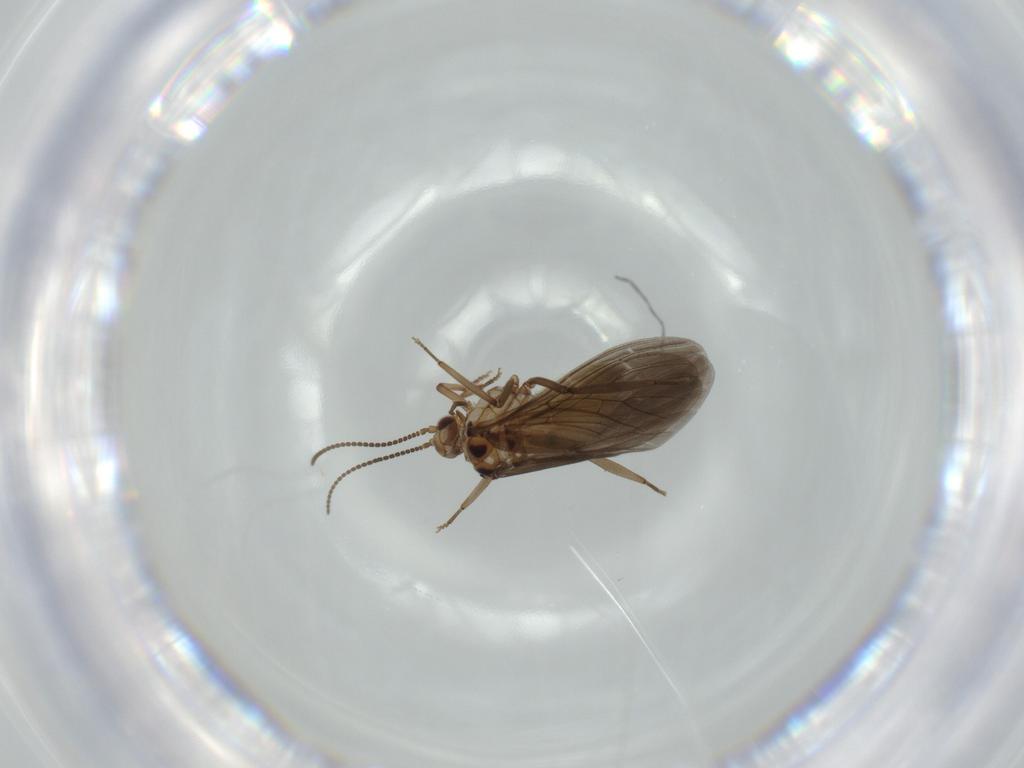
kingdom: Animalia
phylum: Arthropoda
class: Insecta
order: Neuroptera
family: Coniopterygidae
